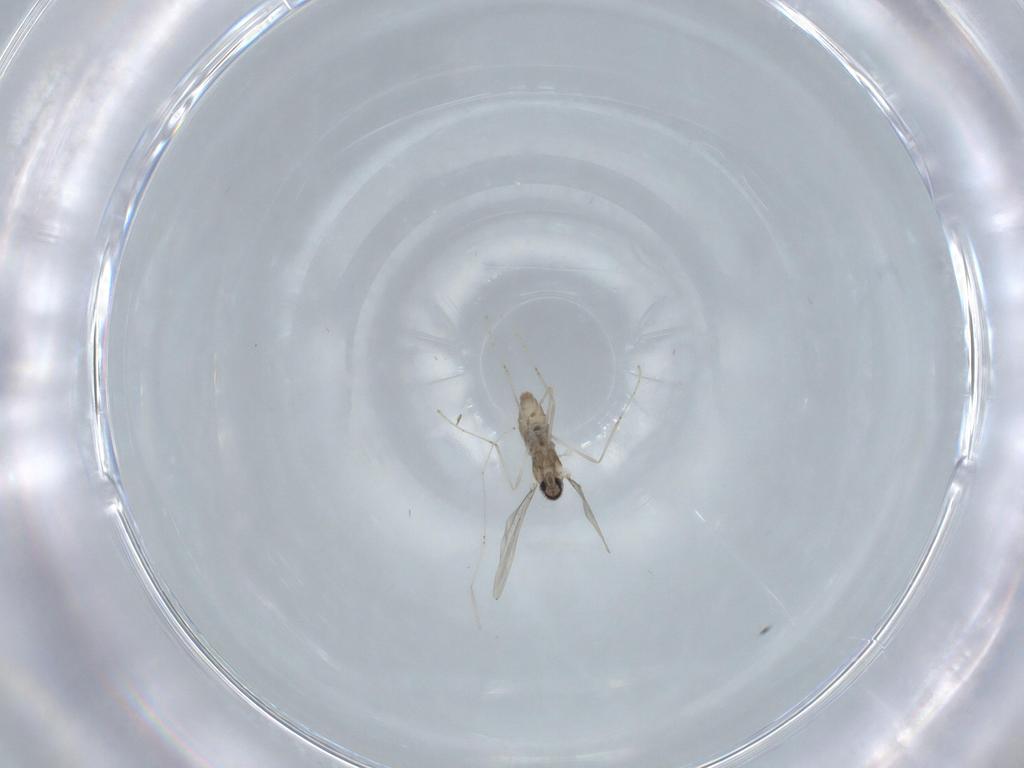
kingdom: Animalia
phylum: Arthropoda
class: Insecta
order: Diptera
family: Cecidomyiidae
